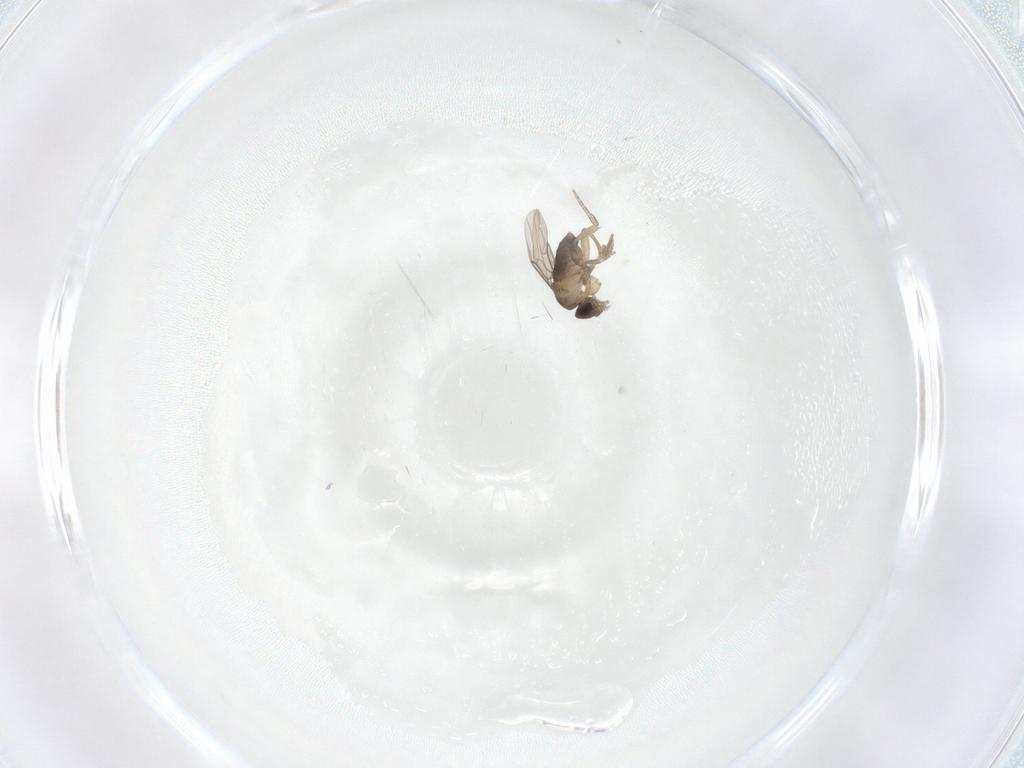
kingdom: Animalia
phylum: Arthropoda
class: Insecta
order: Diptera
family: Phoridae
